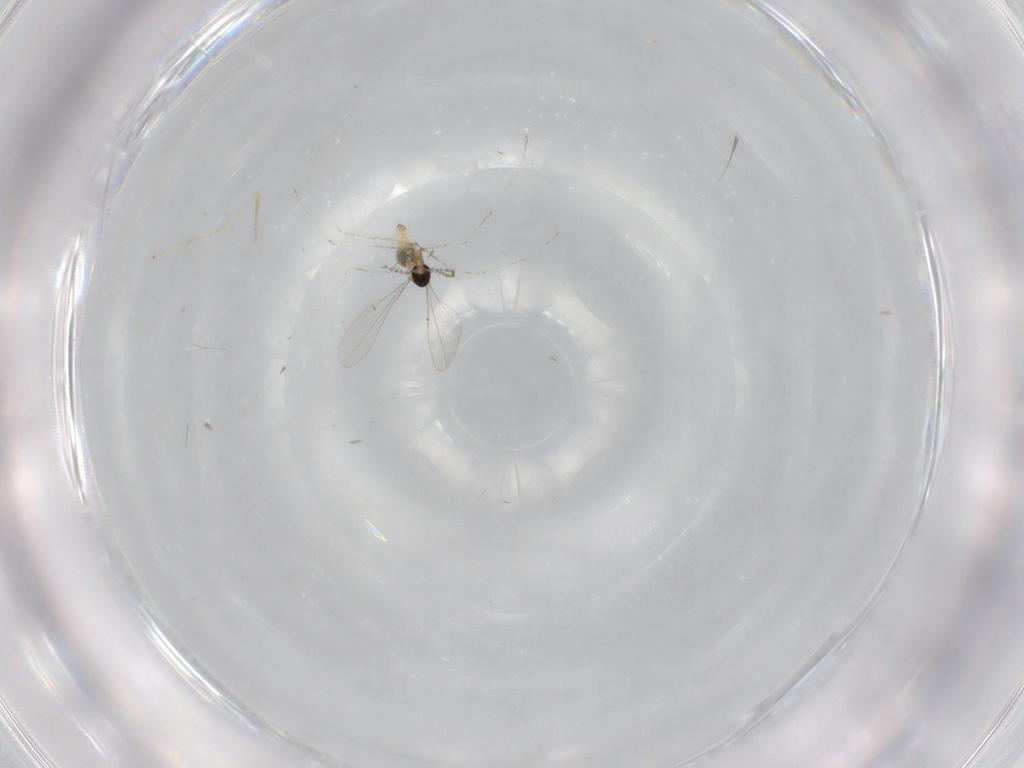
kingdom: Animalia
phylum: Arthropoda
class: Insecta
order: Diptera
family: Cecidomyiidae
